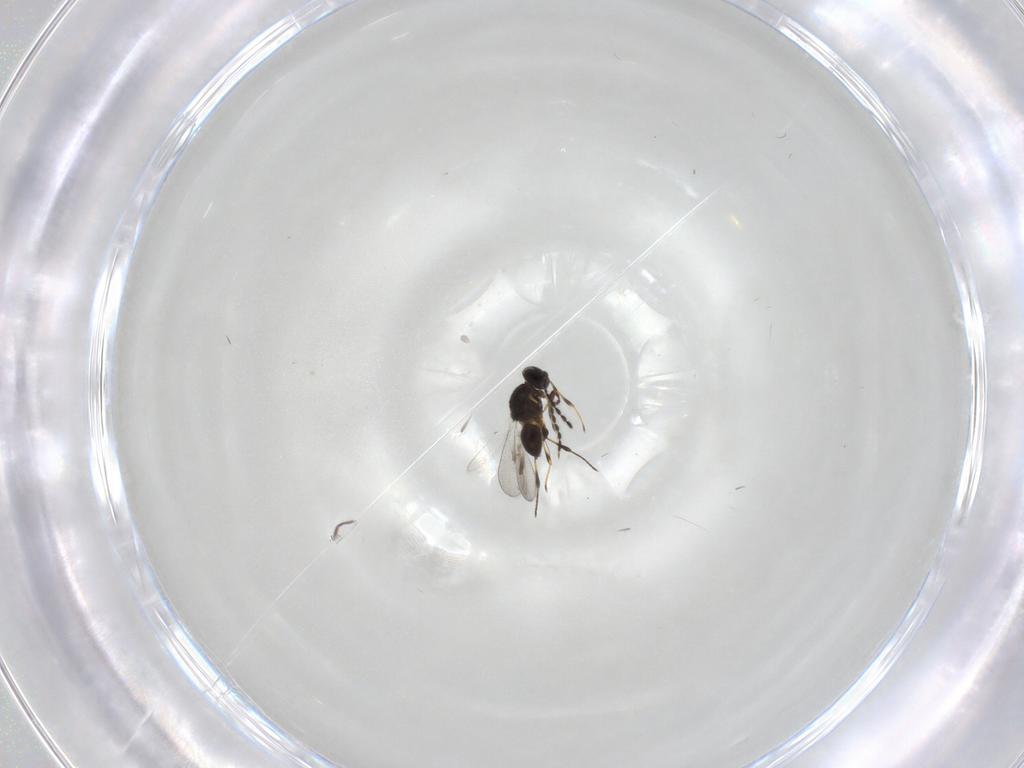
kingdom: Animalia
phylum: Arthropoda
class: Insecta
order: Hymenoptera
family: Platygastridae
